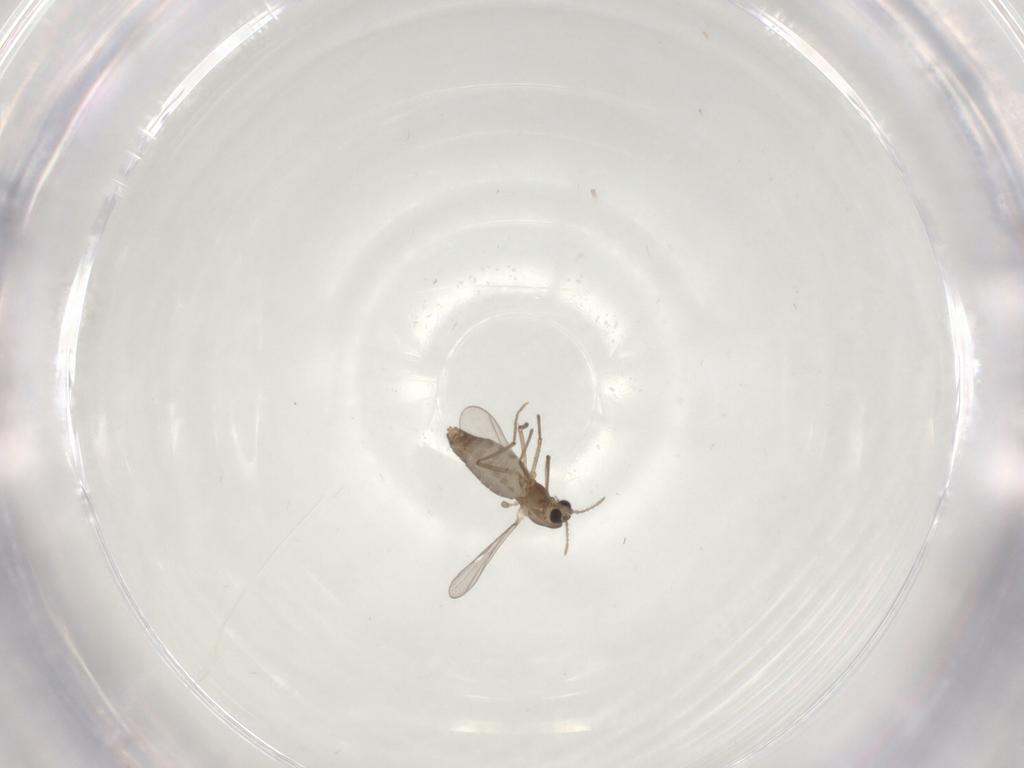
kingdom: Animalia
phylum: Arthropoda
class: Insecta
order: Diptera
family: Chironomidae
